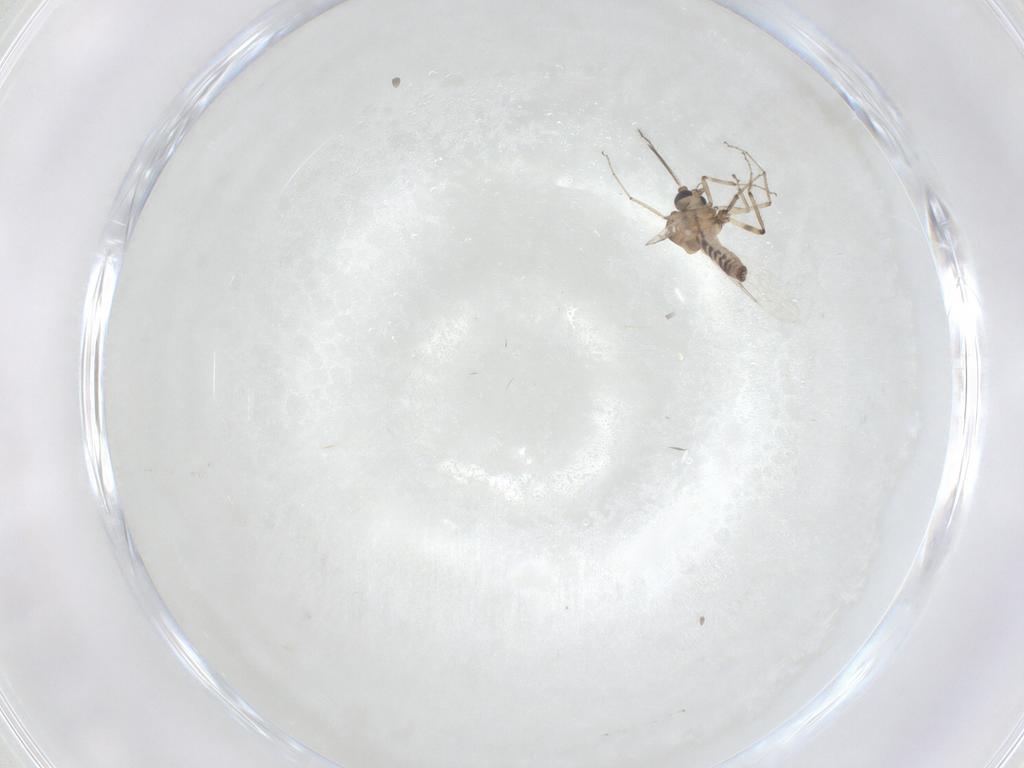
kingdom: Animalia
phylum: Arthropoda
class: Insecta
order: Diptera
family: Ceratopogonidae
